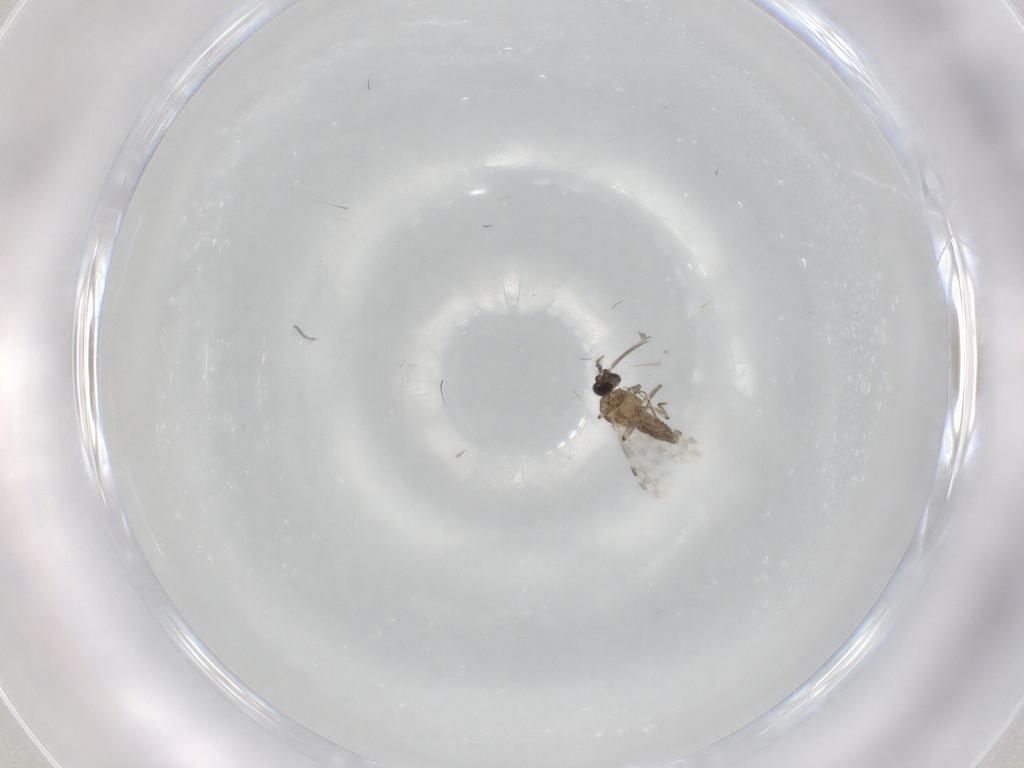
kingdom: Animalia
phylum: Arthropoda
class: Insecta
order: Diptera
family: Ceratopogonidae
